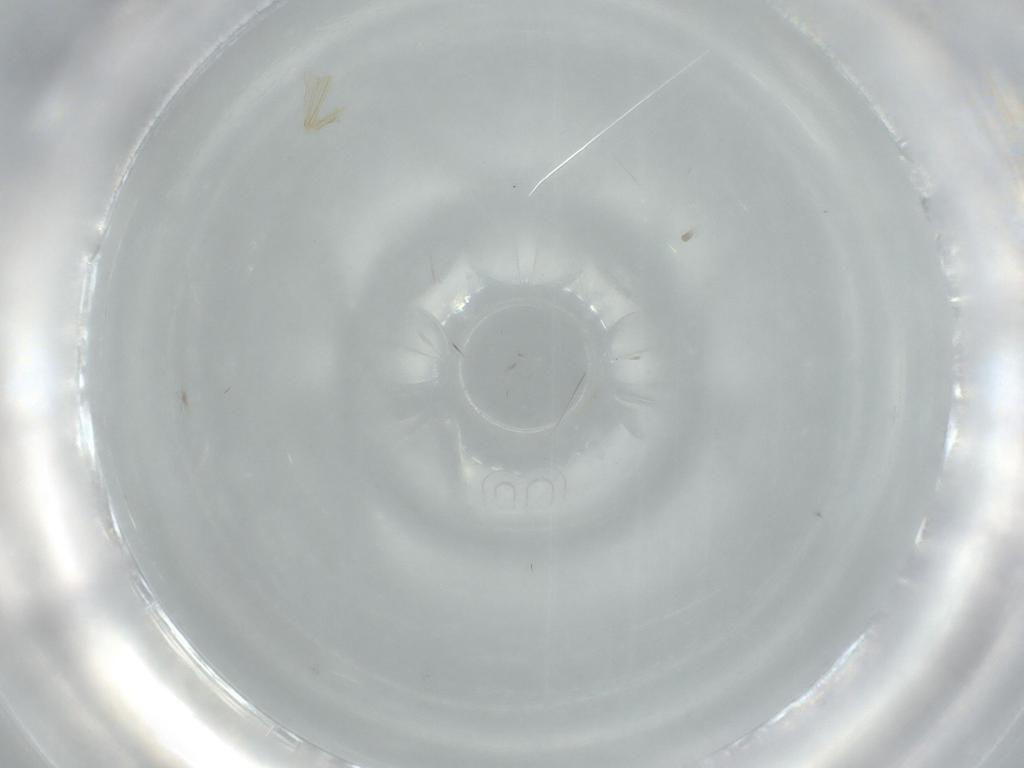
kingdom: Animalia
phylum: Arthropoda
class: Insecta
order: Diptera
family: Chironomidae
